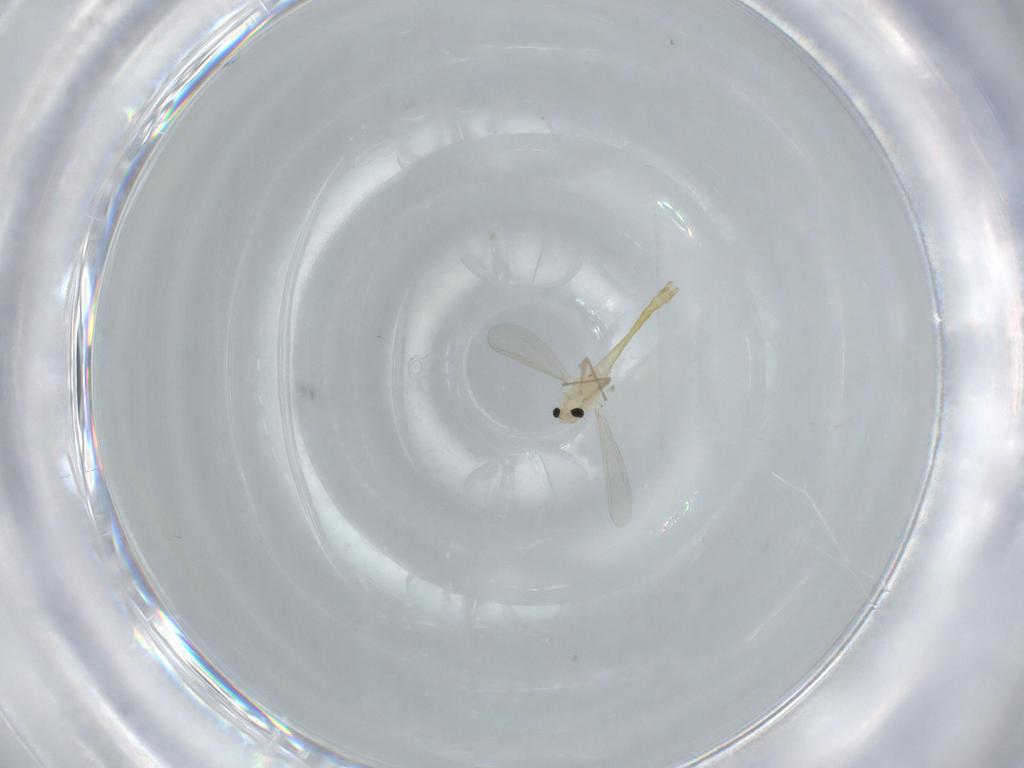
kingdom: Animalia
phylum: Arthropoda
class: Insecta
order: Diptera
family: Chironomidae
